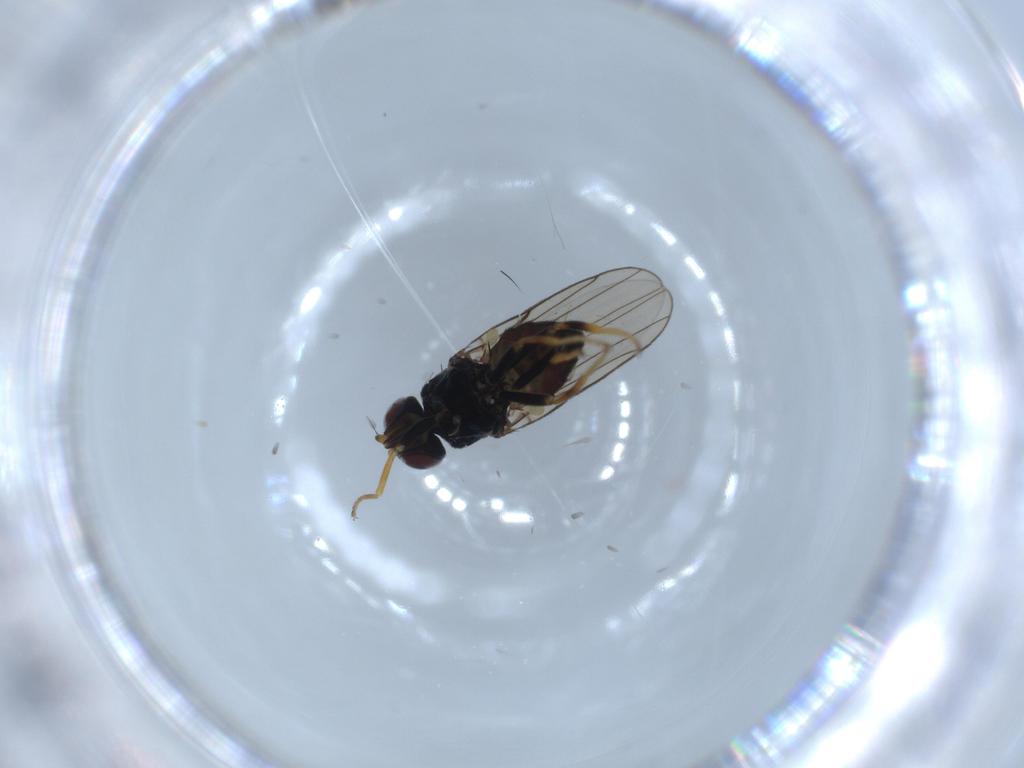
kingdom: Animalia
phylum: Arthropoda
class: Insecta
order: Diptera
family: Chloropidae
